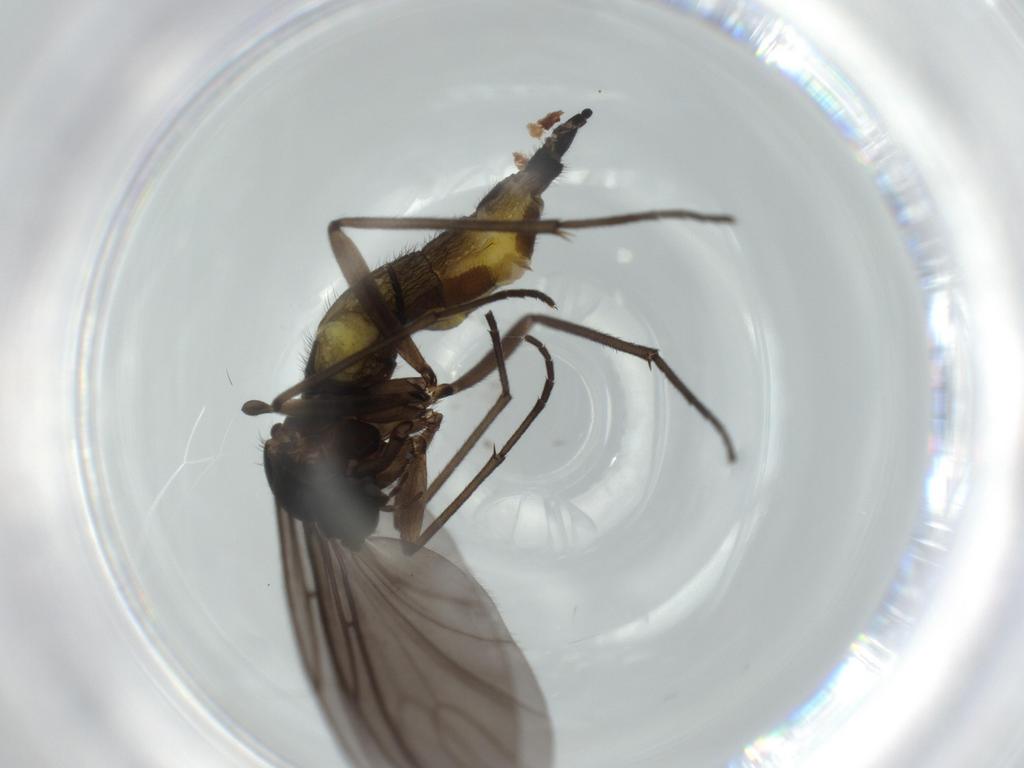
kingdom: Animalia
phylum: Arthropoda
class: Insecta
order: Diptera
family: Sciaridae
